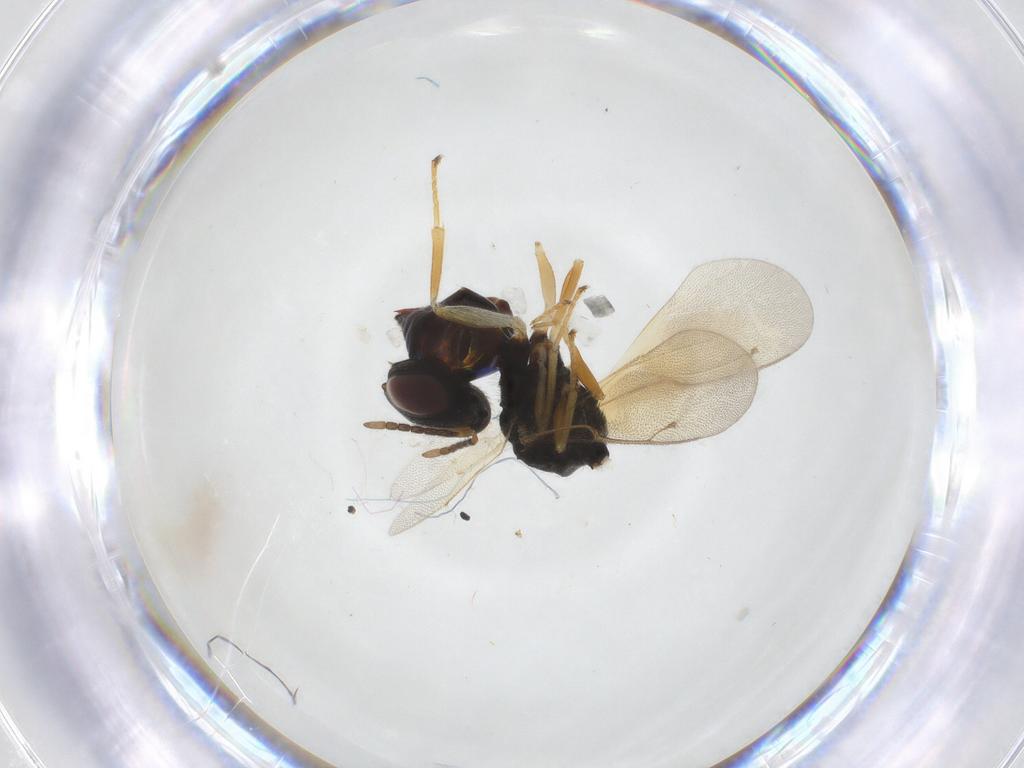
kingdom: Animalia
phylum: Arthropoda
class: Insecta
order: Hymenoptera
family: Pteromalidae
